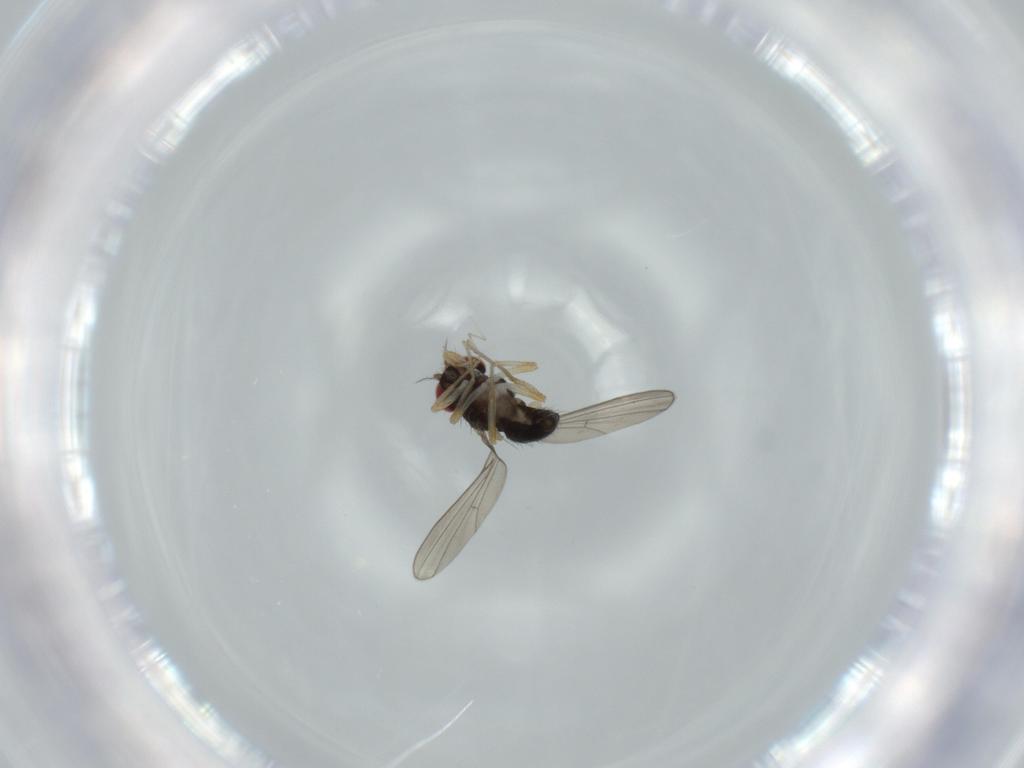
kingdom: Animalia
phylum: Arthropoda
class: Insecta
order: Diptera
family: Drosophilidae
